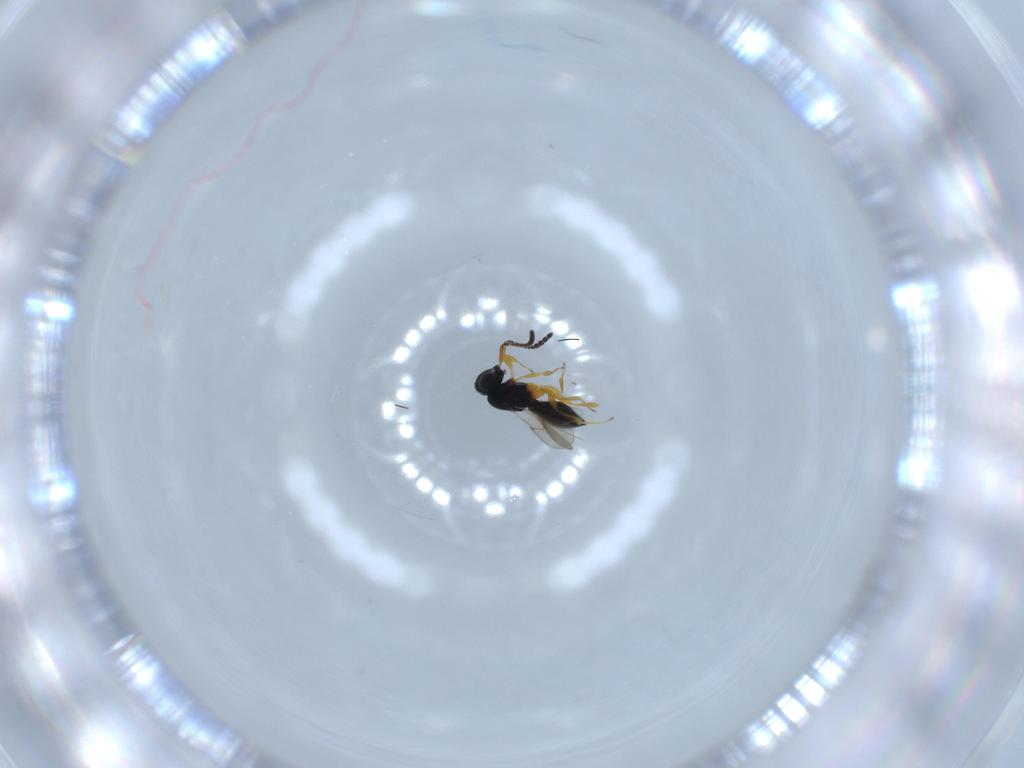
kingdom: Animalia
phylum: Arthropoda
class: Insecta
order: Hymenoptera
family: Scelionidae
